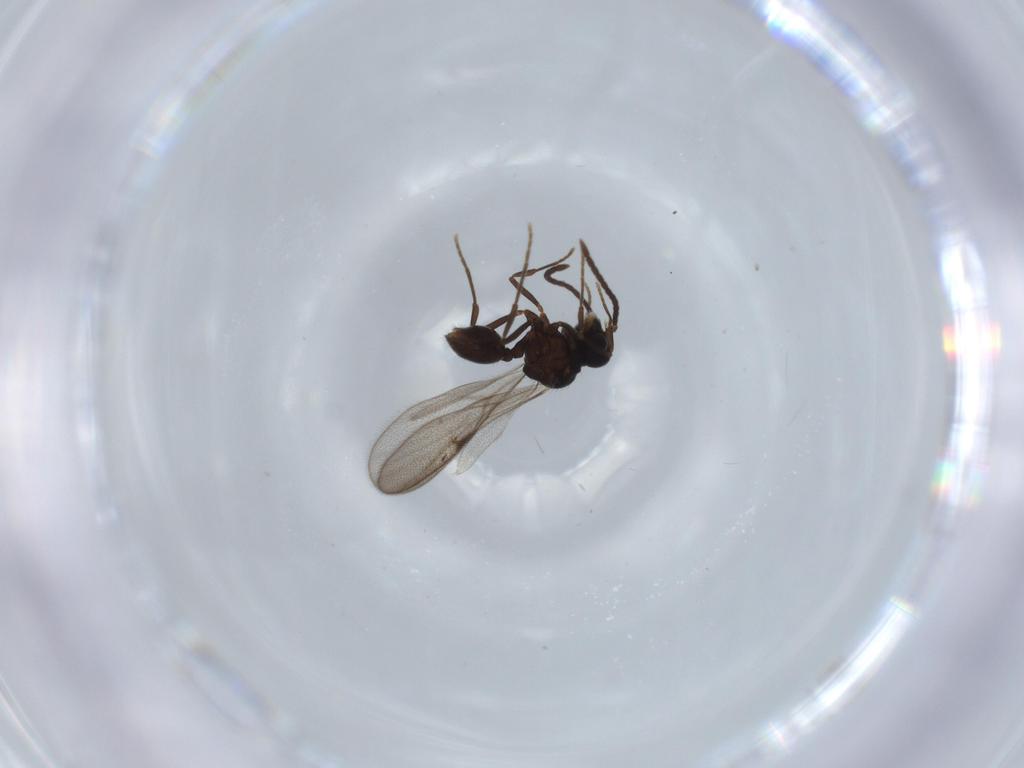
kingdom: Animalia
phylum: Arthropoda
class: Insecta
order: Hymenoptera
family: Formicidae
